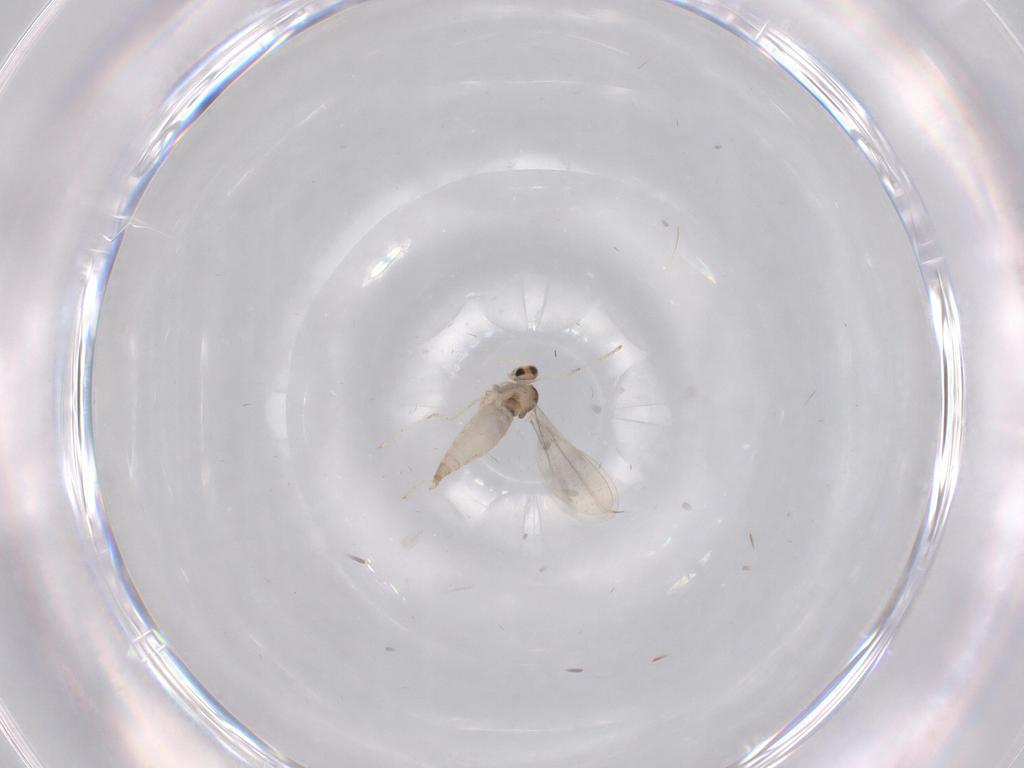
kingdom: Animalia
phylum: Arthropoda
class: Insecta
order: Diptera
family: Cecidomyiidae
